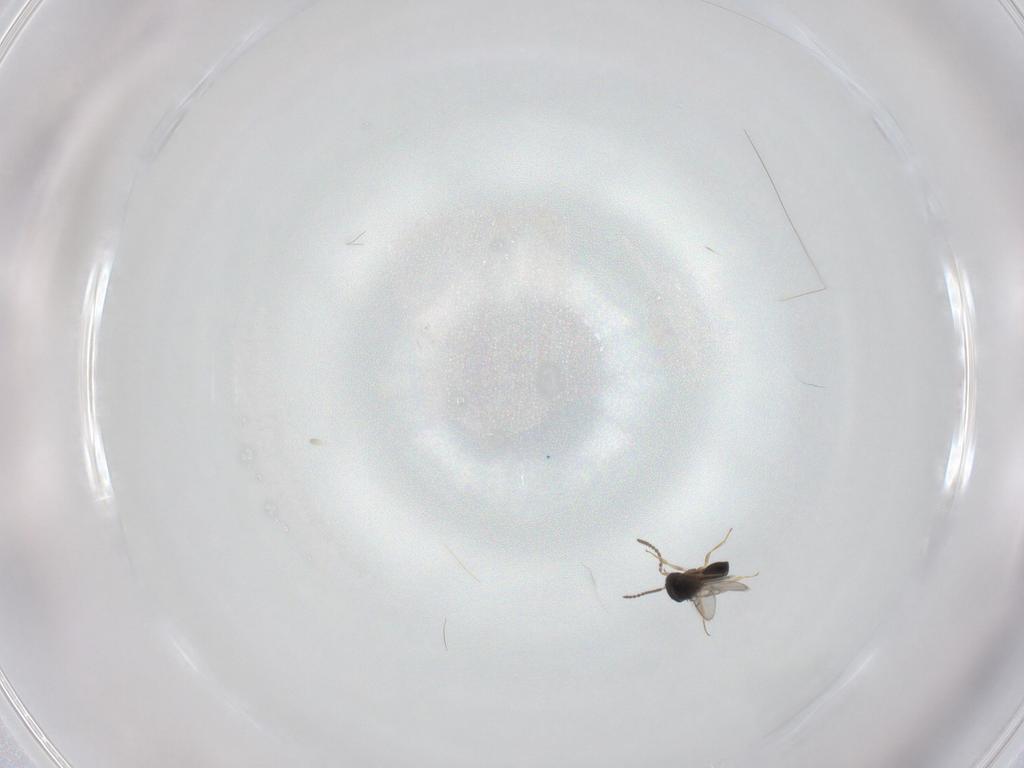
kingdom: Animalia
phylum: Arthropoda
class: Insecta
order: Hymenoptera
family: Scelionidae
